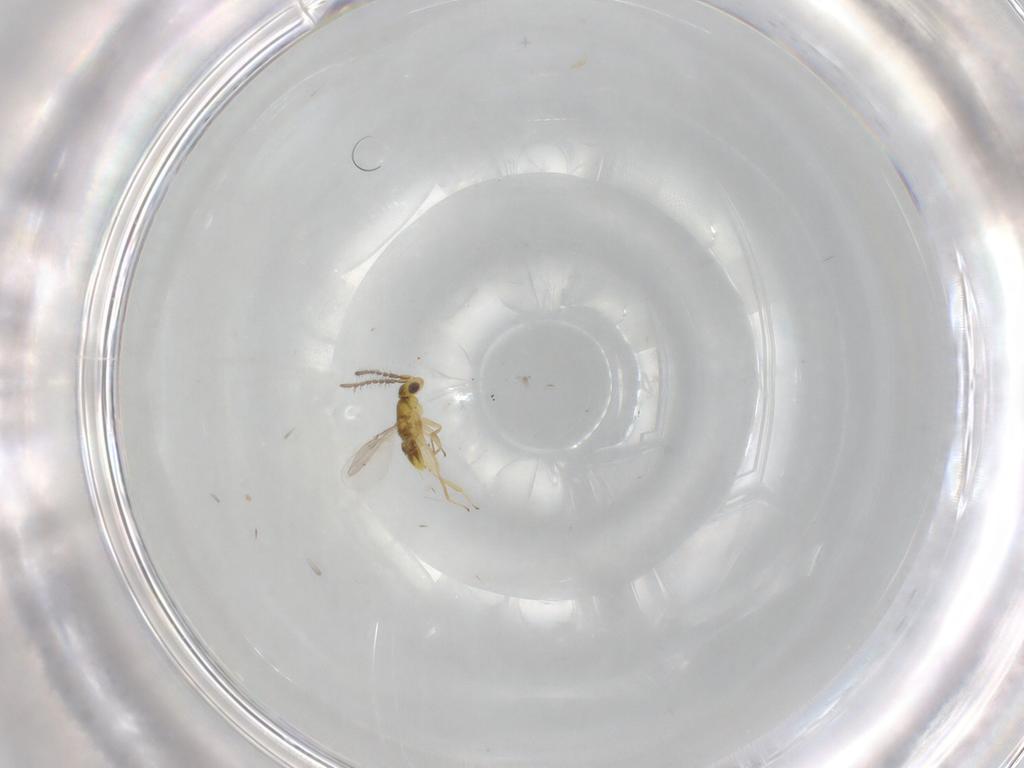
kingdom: Animalia
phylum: Arthropoda
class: Insecta
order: Hymenoptera
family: Encyrtidae
